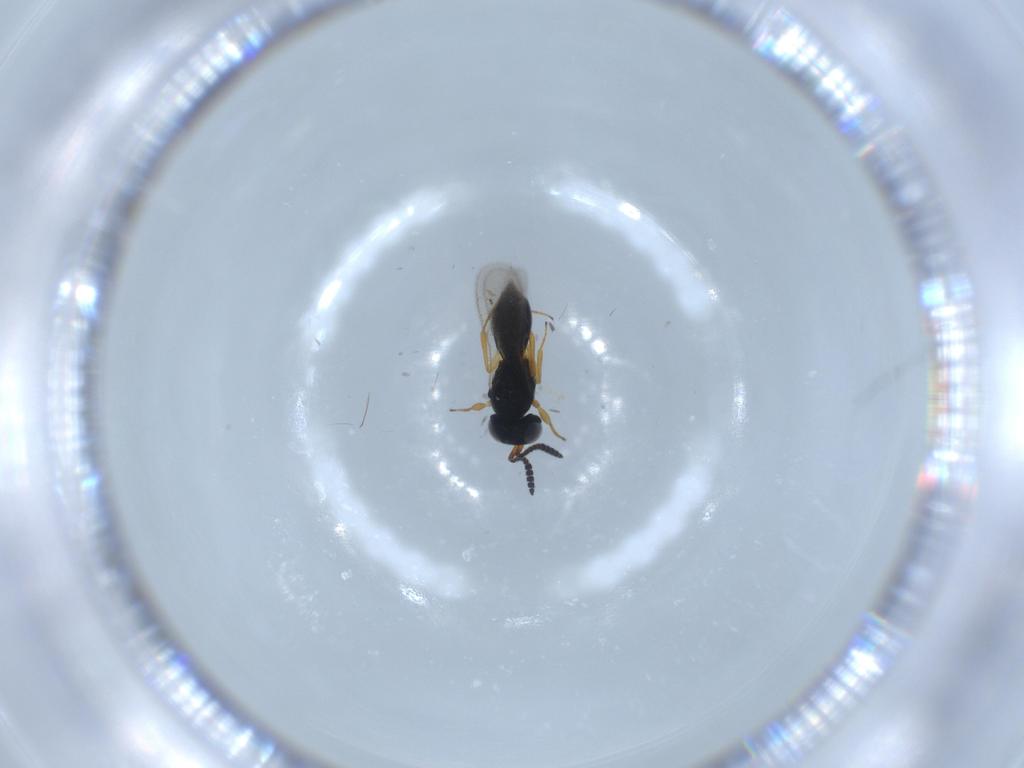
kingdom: Animalia
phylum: Arthropoda
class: Insecta
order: Hymenoptera
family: Scelionidae
